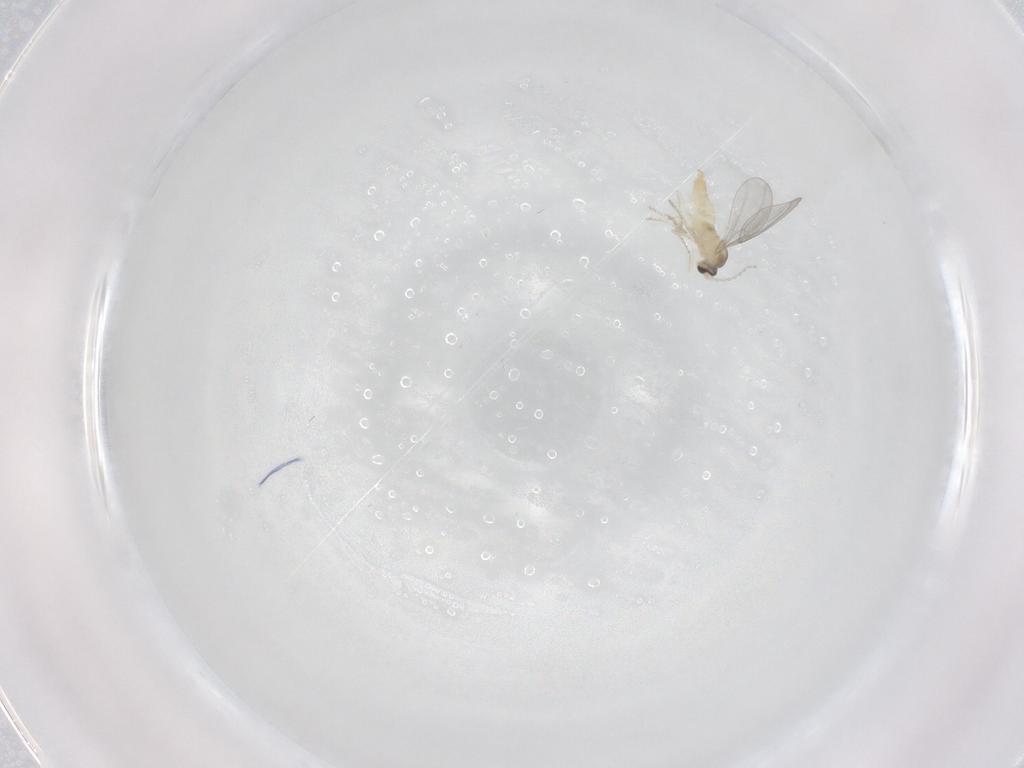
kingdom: Animalia
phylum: Arthropoda
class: Insecta
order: Diptera
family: Cecidomyiidae
